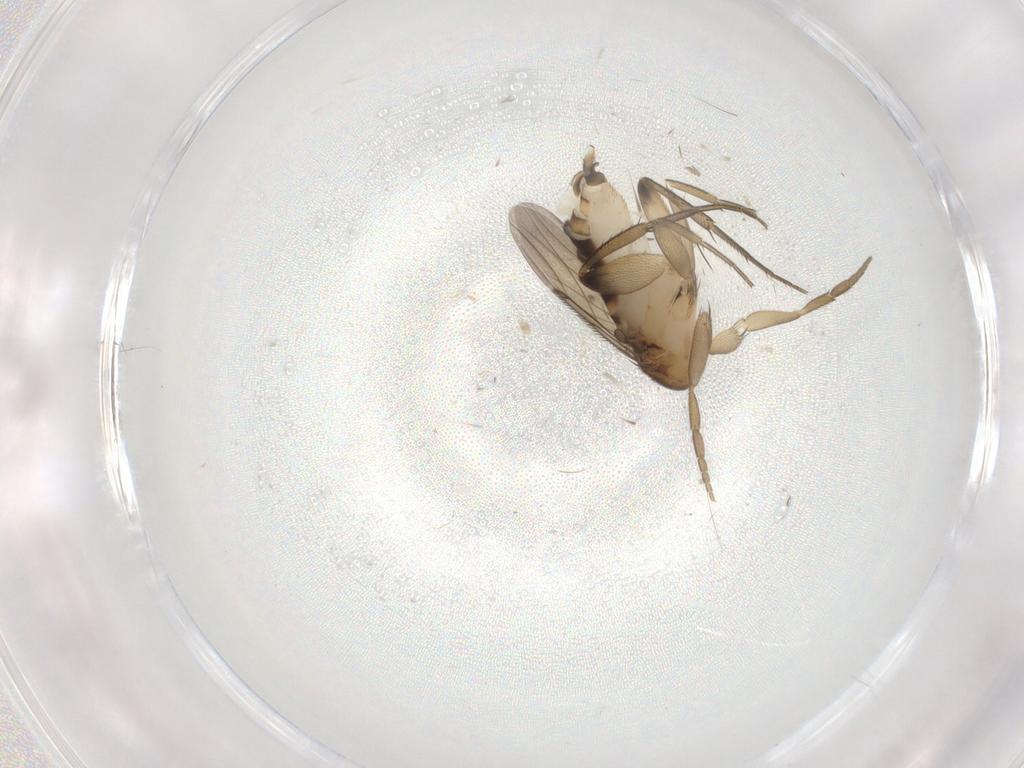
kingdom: Animalia
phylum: Arthropoda
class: Insecta
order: Diptera
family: Phoridae
